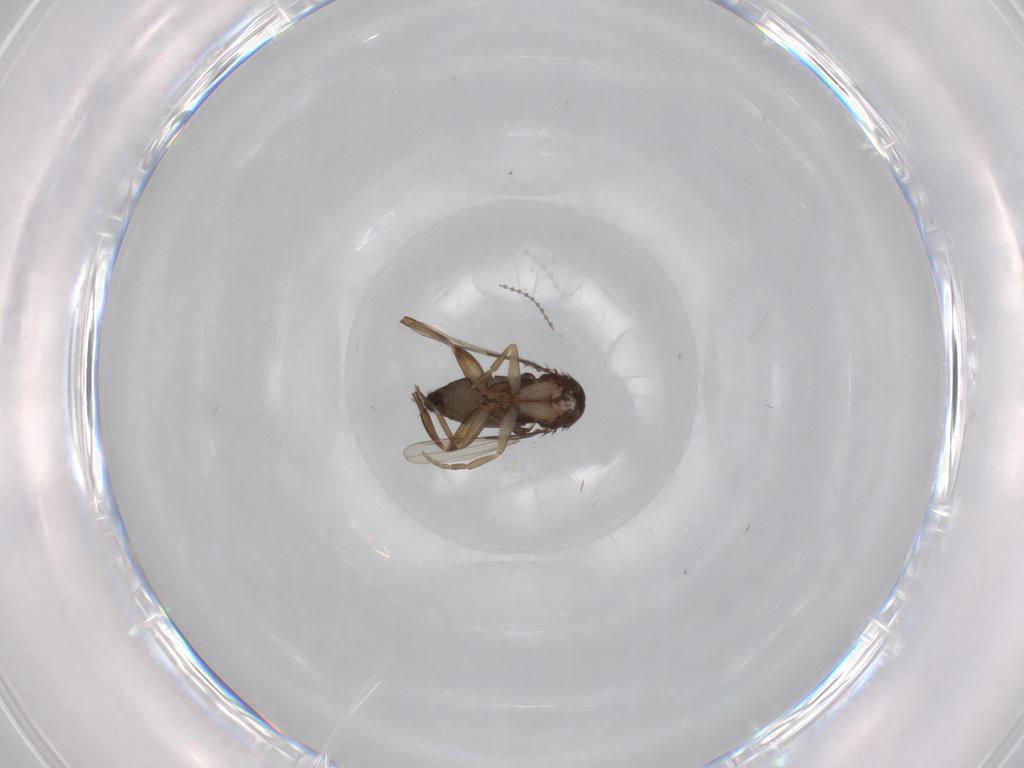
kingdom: Animalia
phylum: Arthropoda
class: Insecta
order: Diptera
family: Phoridae
